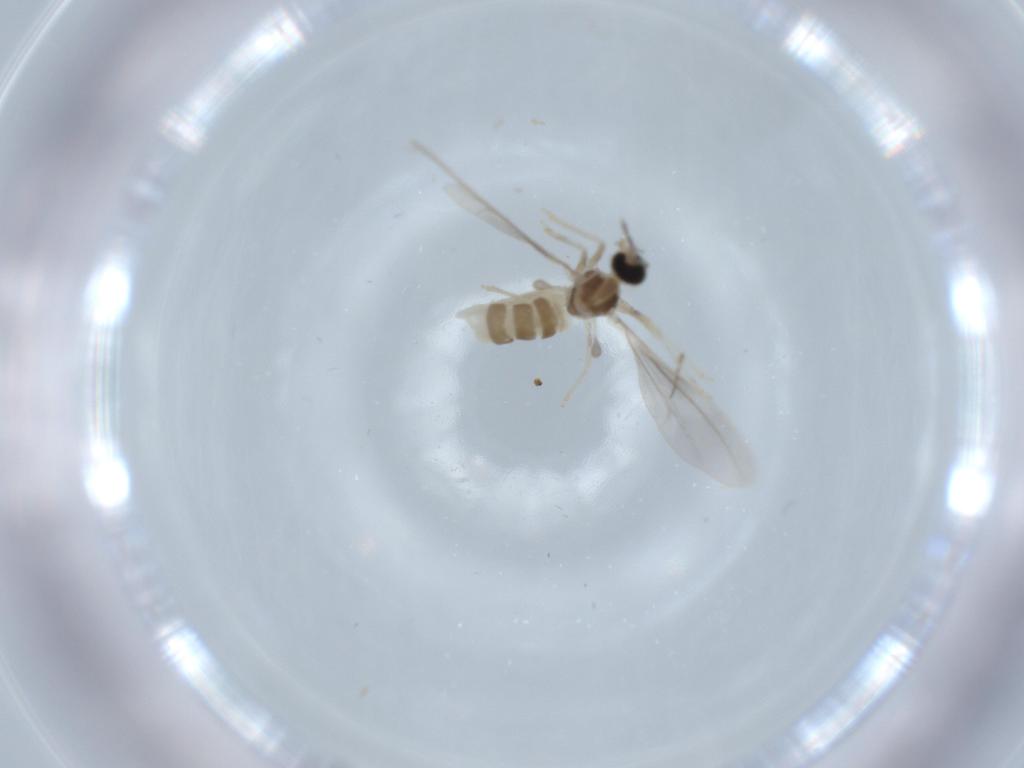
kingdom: Animalia
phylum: Arthropoda
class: Insecta
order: Diptera
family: Cecidomyiidae
